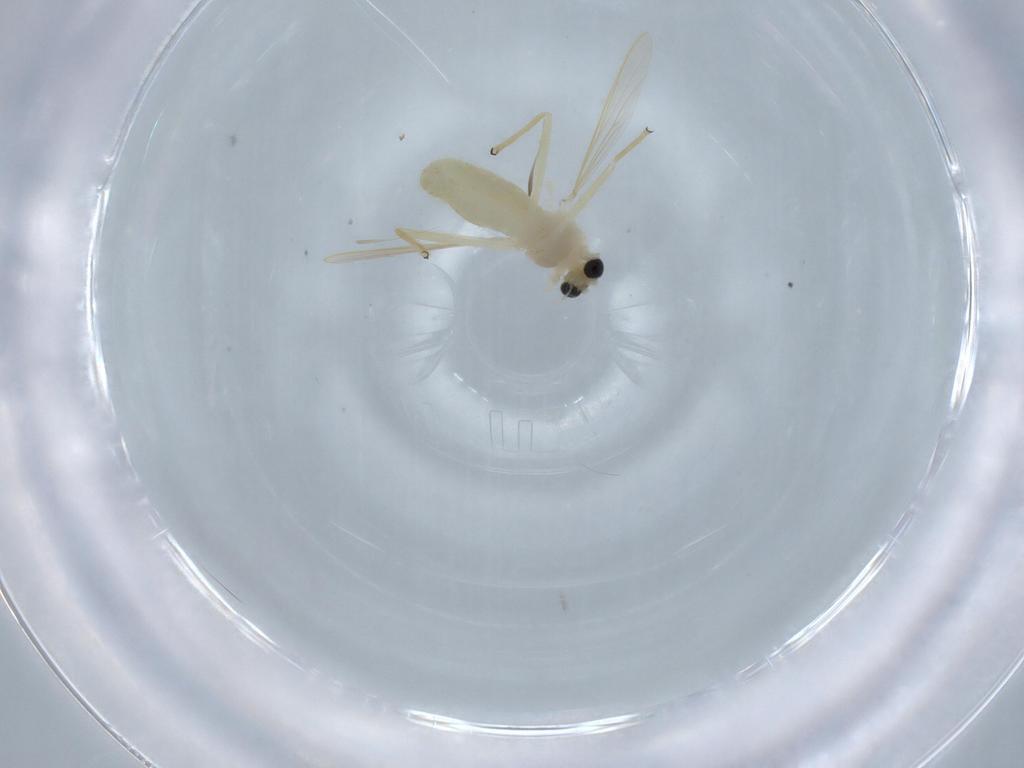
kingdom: Animalia
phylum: Arthropoda
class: Insecta
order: Diptera
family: Chironomidae
